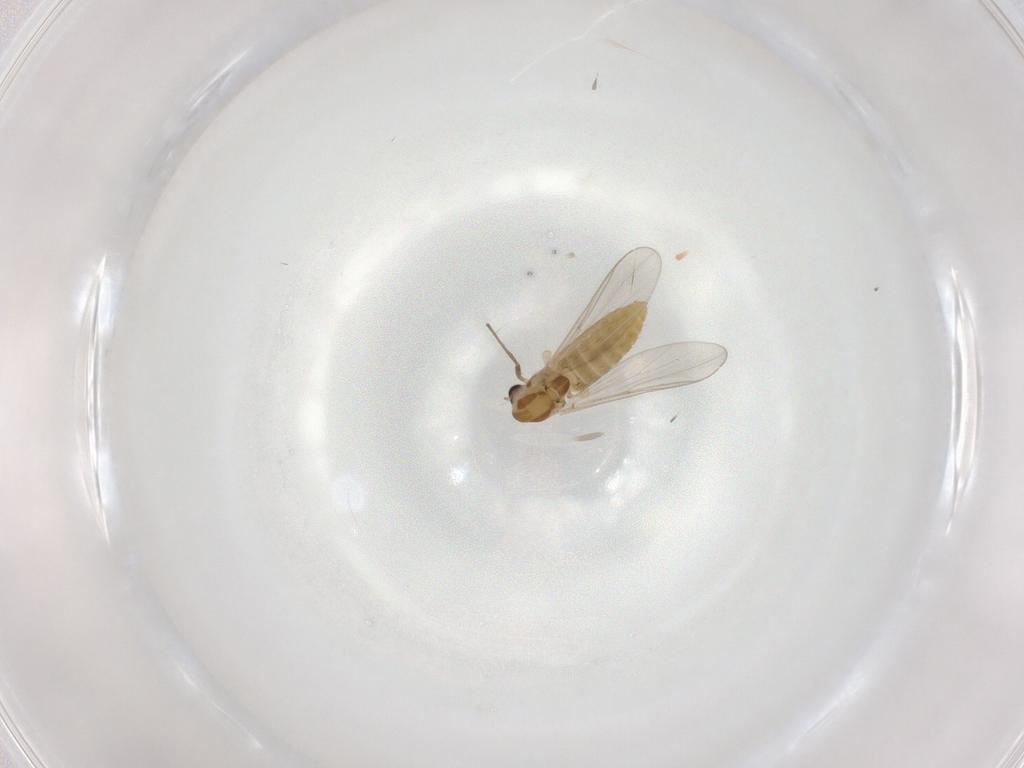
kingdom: Animalia
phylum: Arthropoda
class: Insecta
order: Diptera
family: Chironomidae
